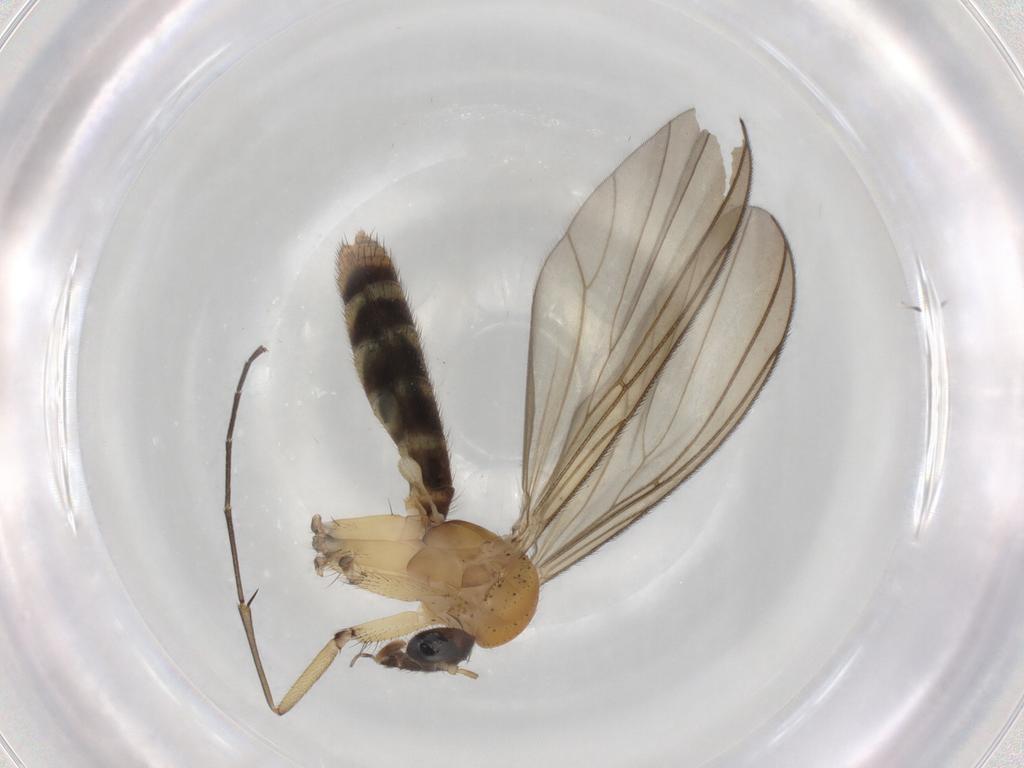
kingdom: Animalia
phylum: Arthropoda
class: Insecta
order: Diptera
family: Mycetophilidae
